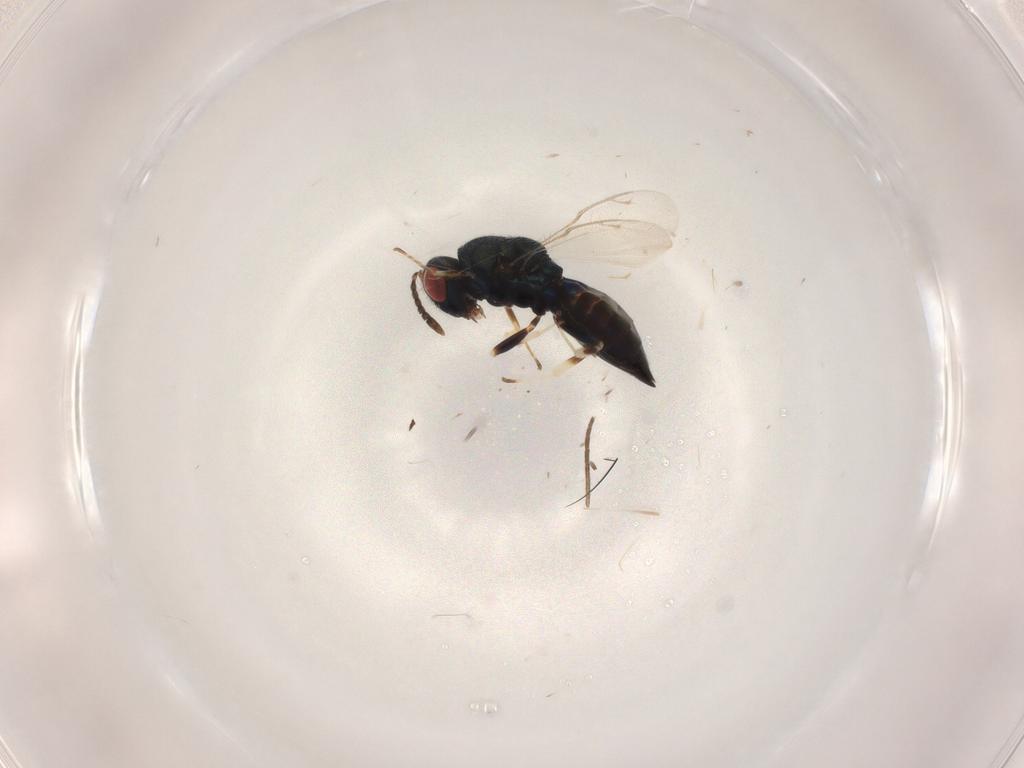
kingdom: Animalia
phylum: Arthropoda
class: Insecta
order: Hymenoptera
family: Pteromalidae
